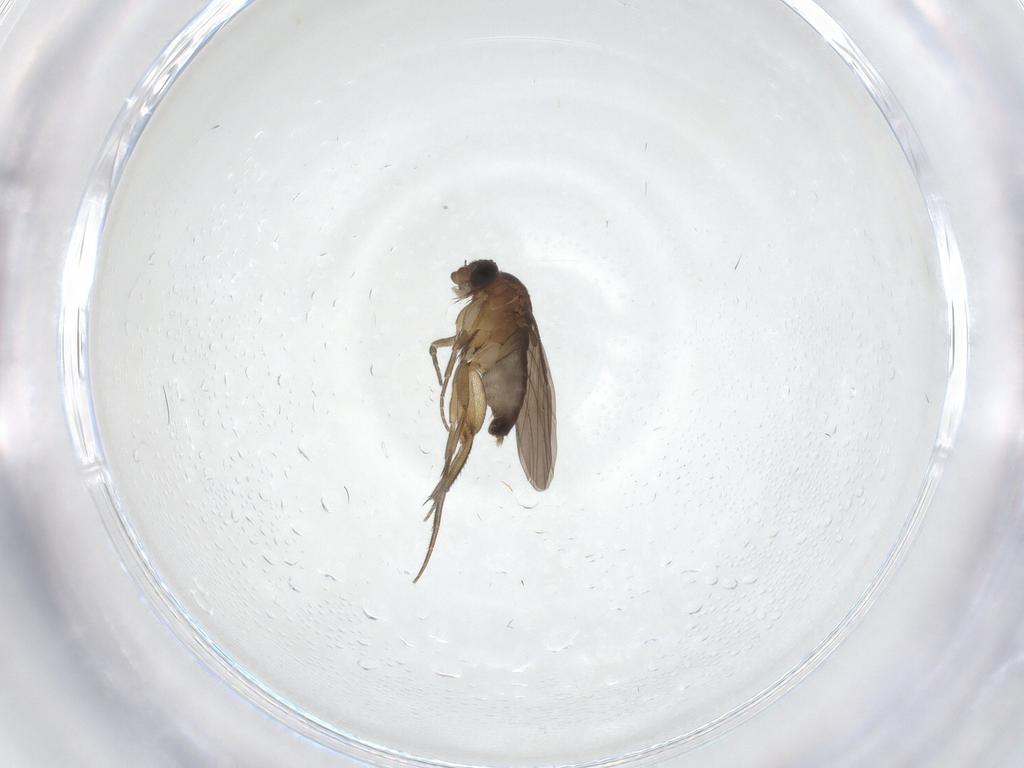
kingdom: Animalia
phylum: Arthropoda
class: Insecta
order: Diptera
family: Phoridae
